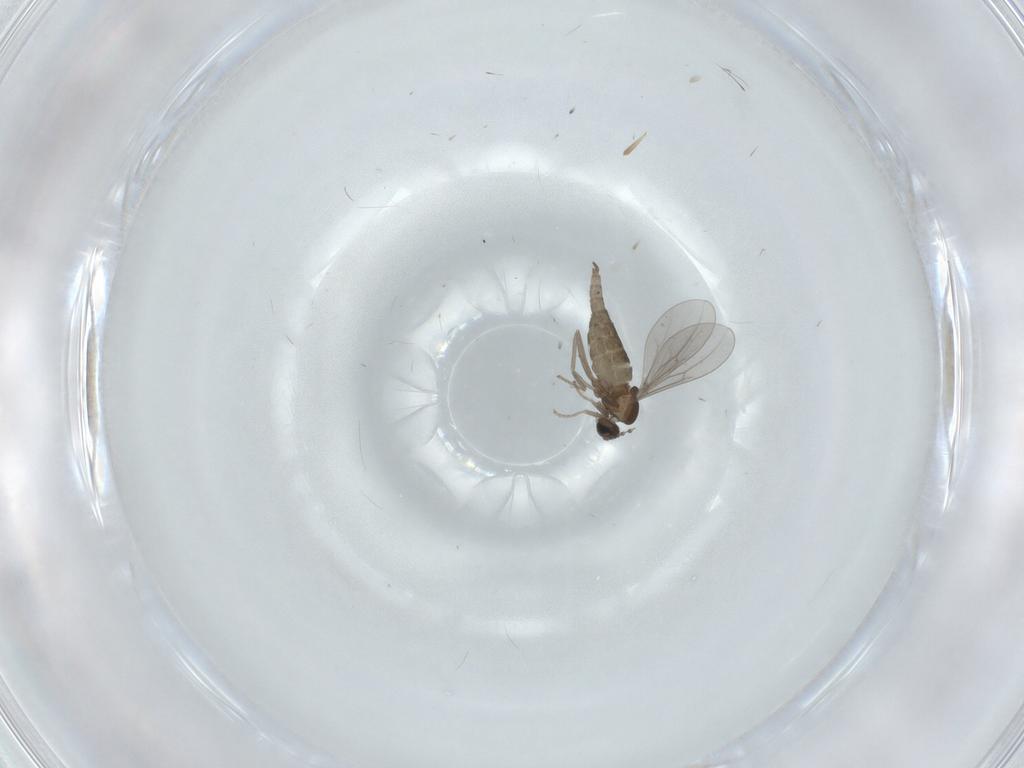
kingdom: Animalia
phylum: Arthropoda
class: Insecta
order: Diptera
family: Cecidomyiidae
